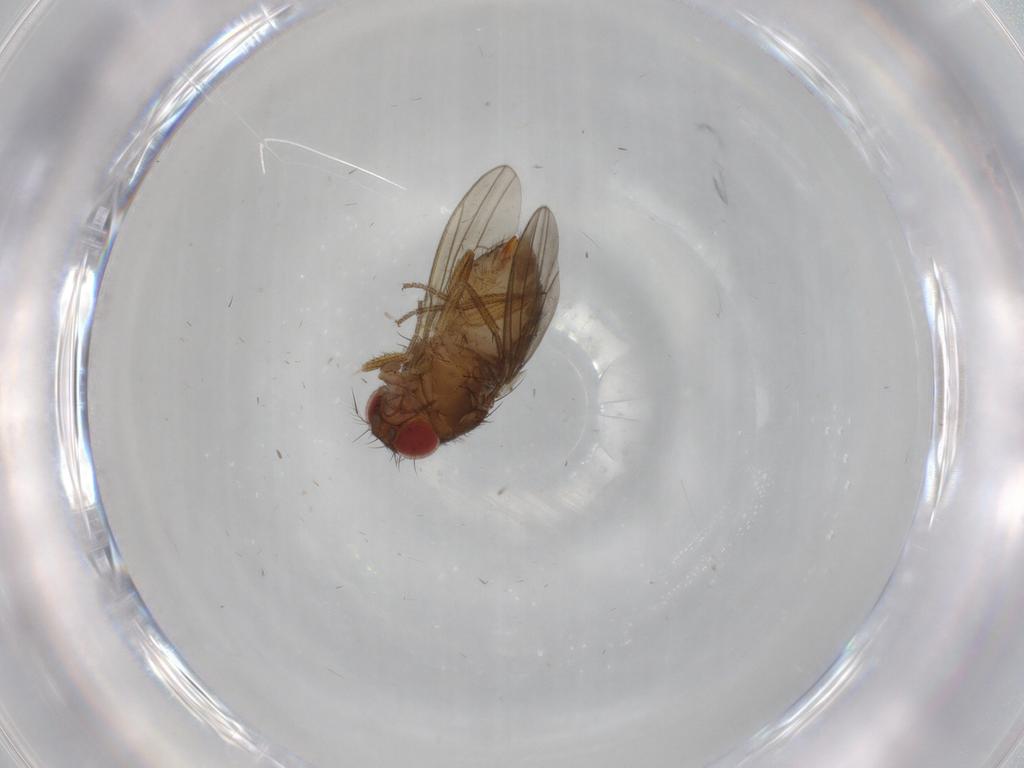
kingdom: Animalia
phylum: Arthropoda
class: Insecta
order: Diptera
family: Drosophilidae
